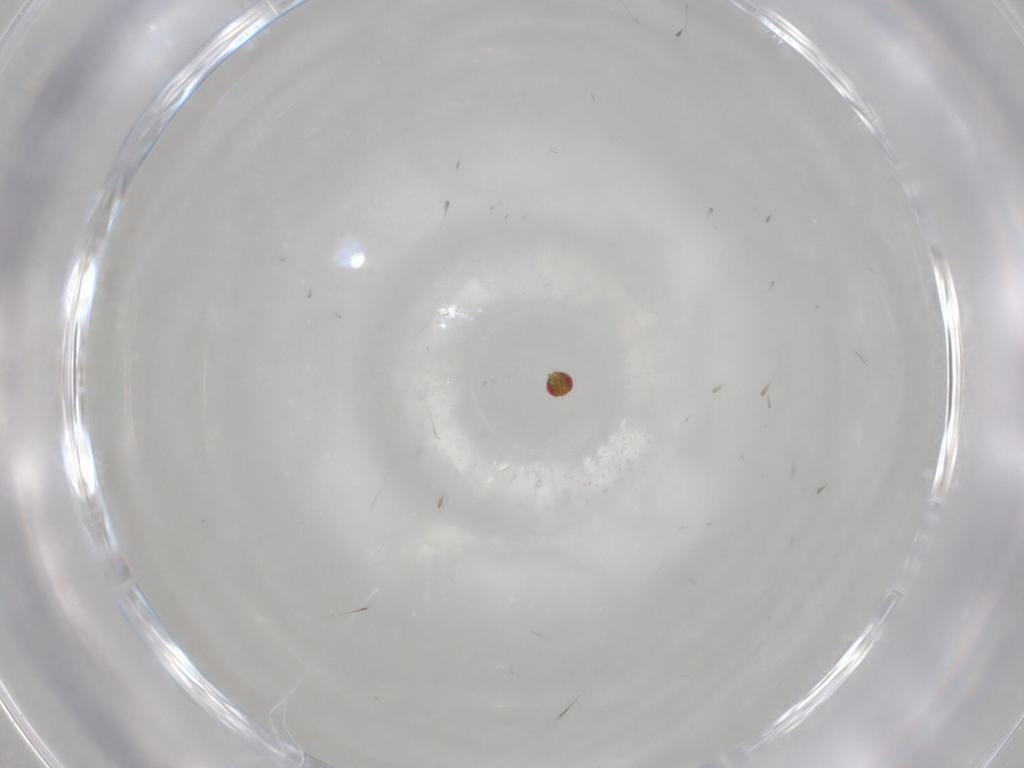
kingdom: Animalia
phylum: Arthropoda
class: Insecta
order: Hymenoptera
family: Trichogrammatidae
